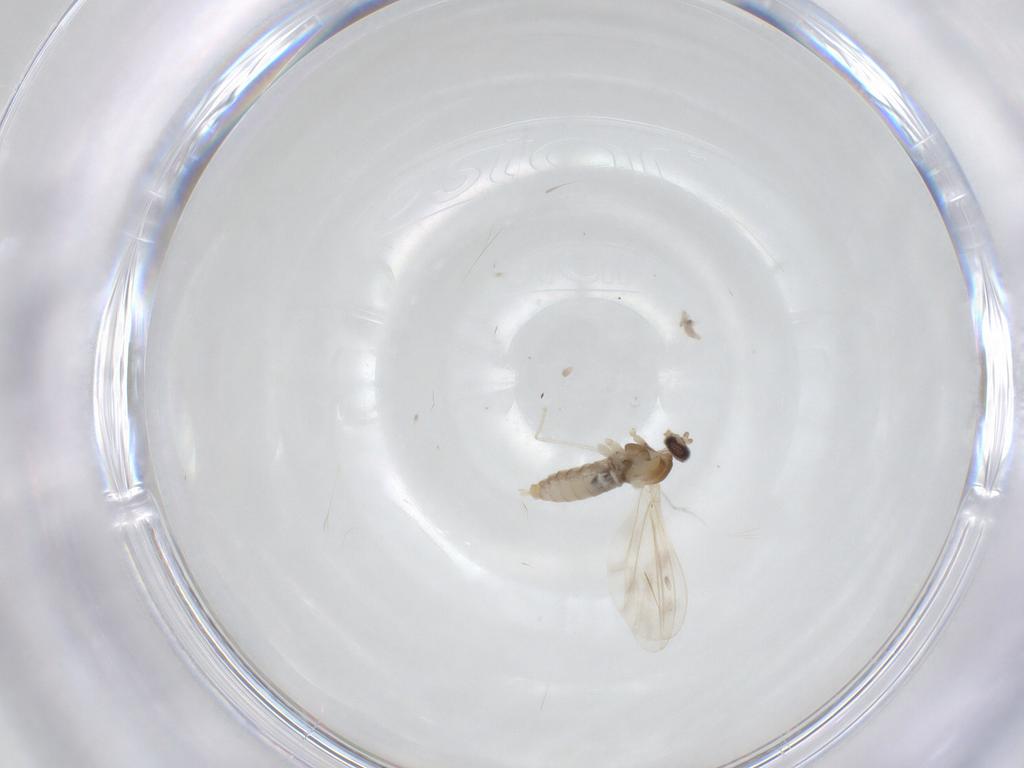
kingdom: Animalia
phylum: Arthropoda
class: Insecta
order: Diptera
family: Cecidomyiidae
